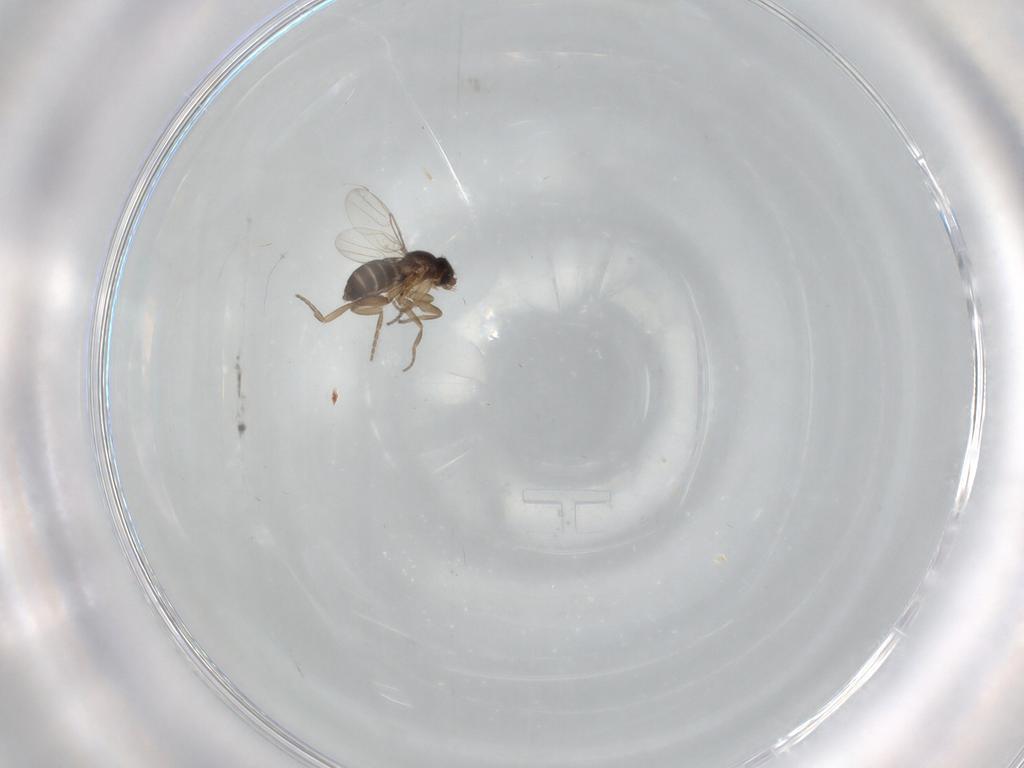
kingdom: Animalia
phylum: Arthropoda
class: Insecta
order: Diptera
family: Phoridae
